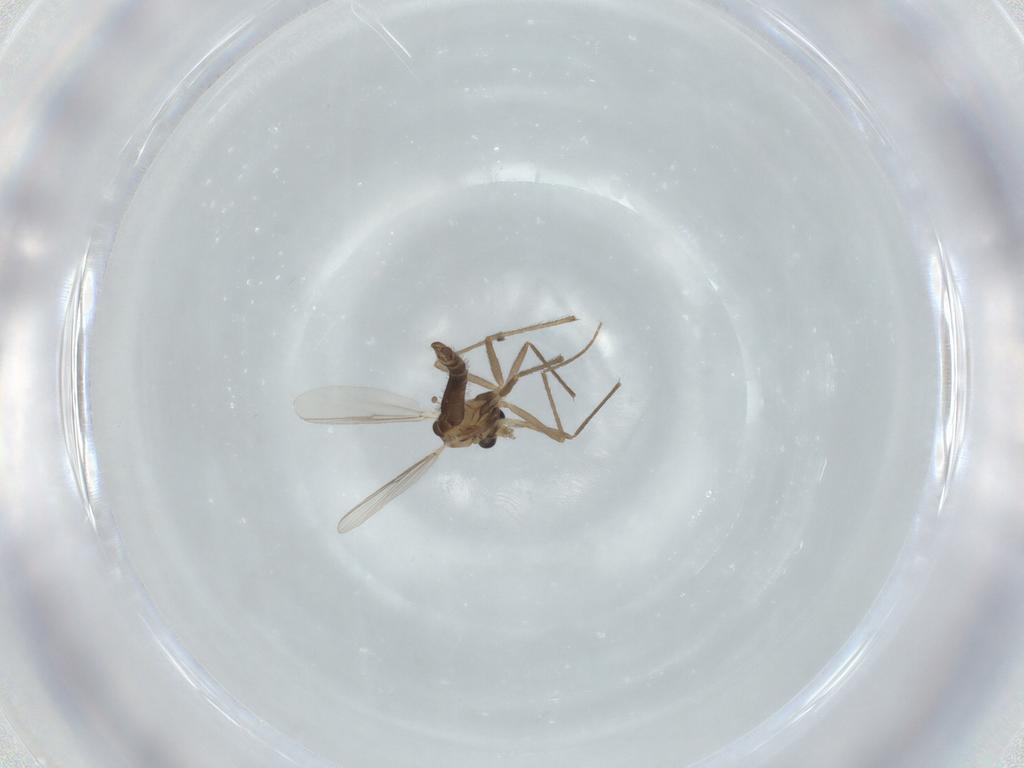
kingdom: Animalia
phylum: Arthropoda
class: Insecta
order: Diptera
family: Chironomidae
